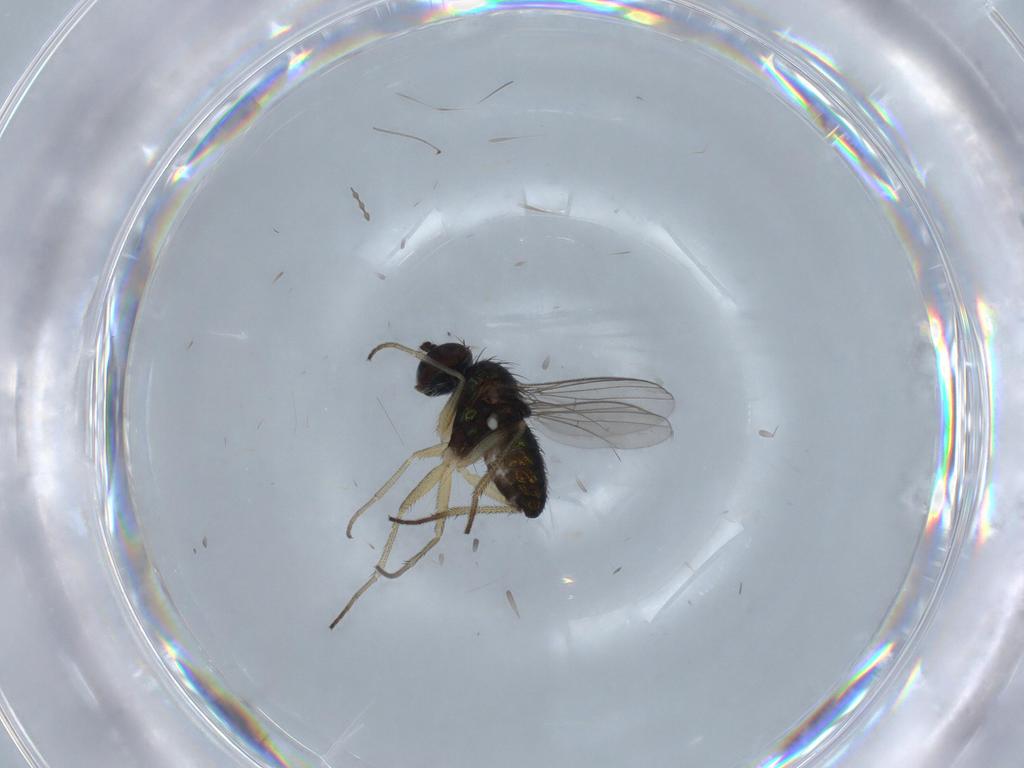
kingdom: Animalia
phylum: Arthropoda
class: Insecta
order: Diptera
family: Dolichopodidae
